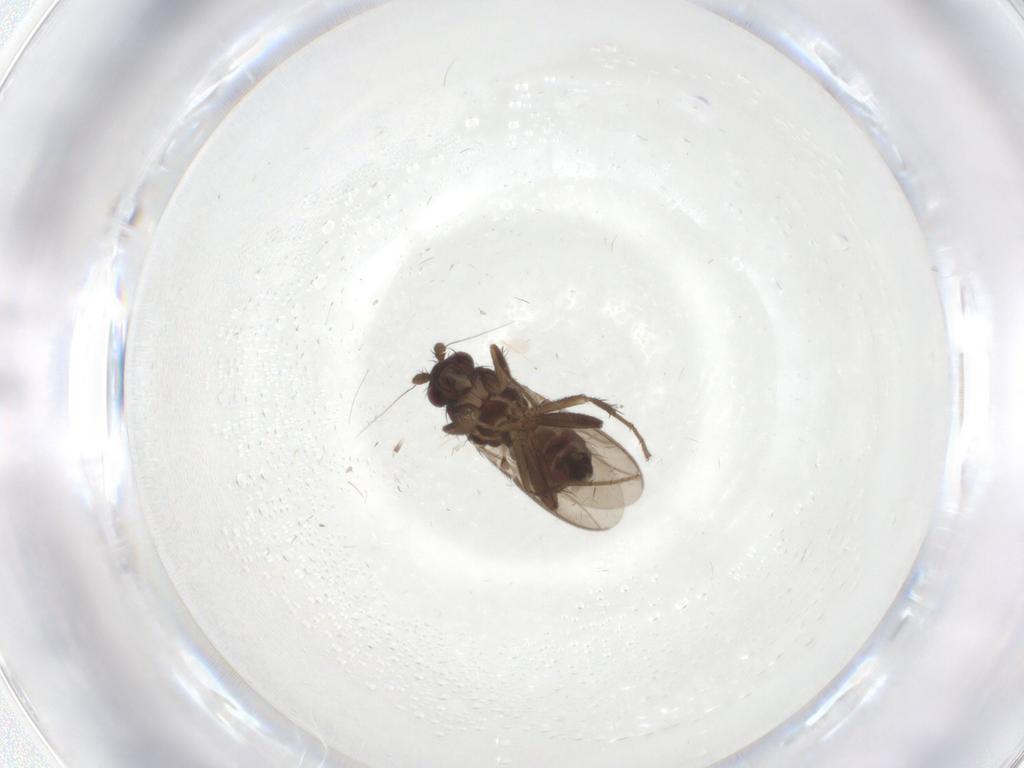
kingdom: Animalia
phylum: Arthropoda
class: Insecta
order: Diptera
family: Sphaeroceridae
